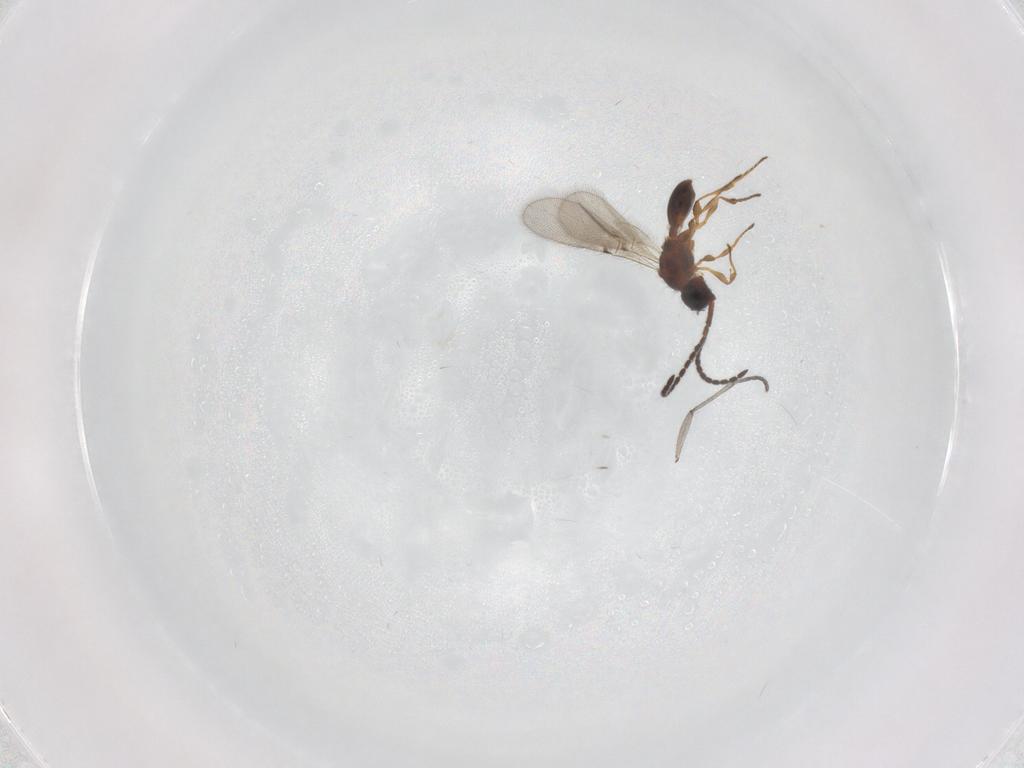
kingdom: Animalia
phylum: Arthropoda
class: Insecta
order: Hymenoptera
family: Diapriidae
